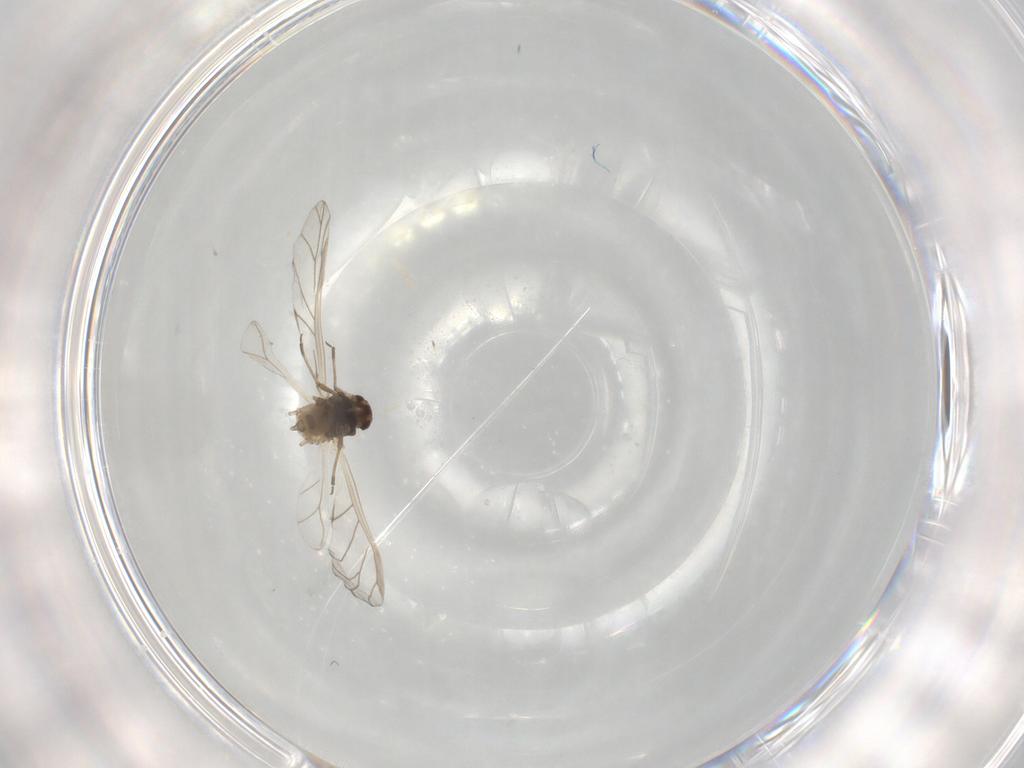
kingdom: Animalia
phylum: Arthropoda
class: Insecta
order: Hemiptera
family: Aphididae
